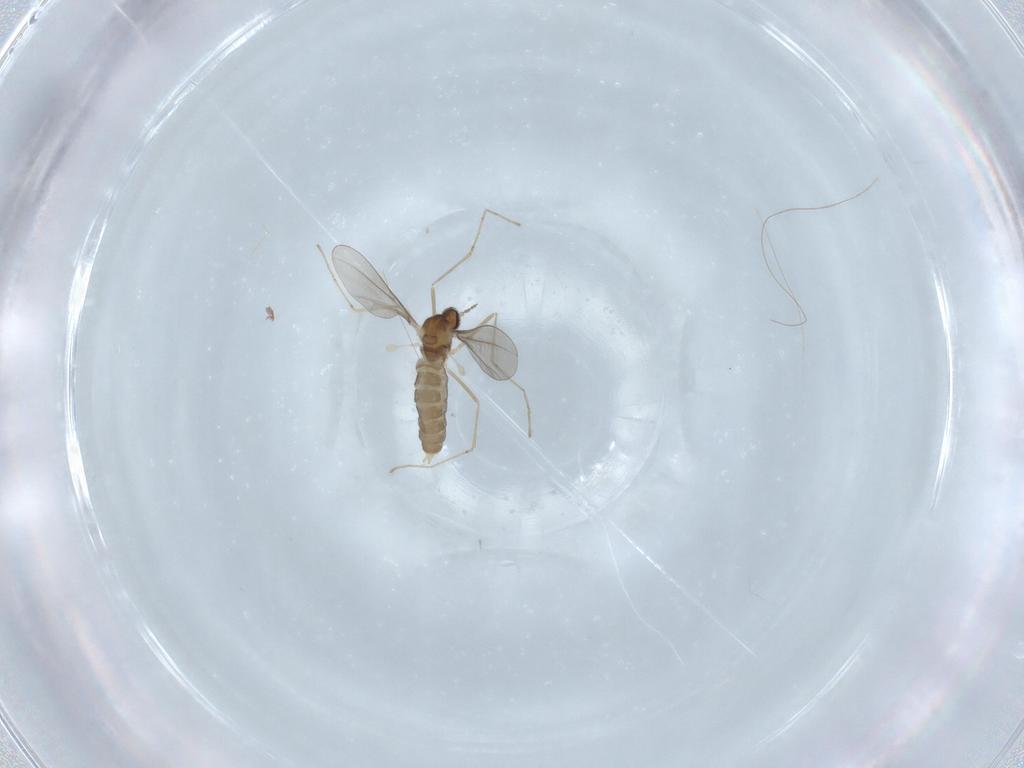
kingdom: Animalia
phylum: Arthropoda
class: Insecta
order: Diptera
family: Cecidomyiidae
